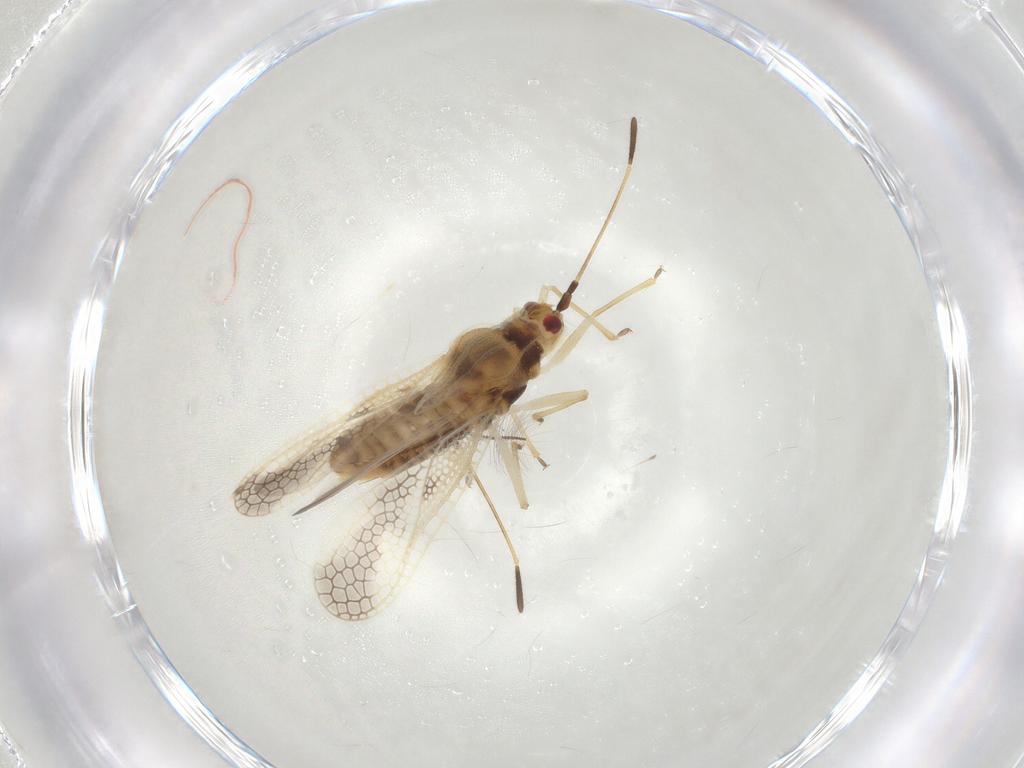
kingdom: Animalia
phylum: Arthropoda
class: Insecta
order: Hemiptera
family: Tingidae
